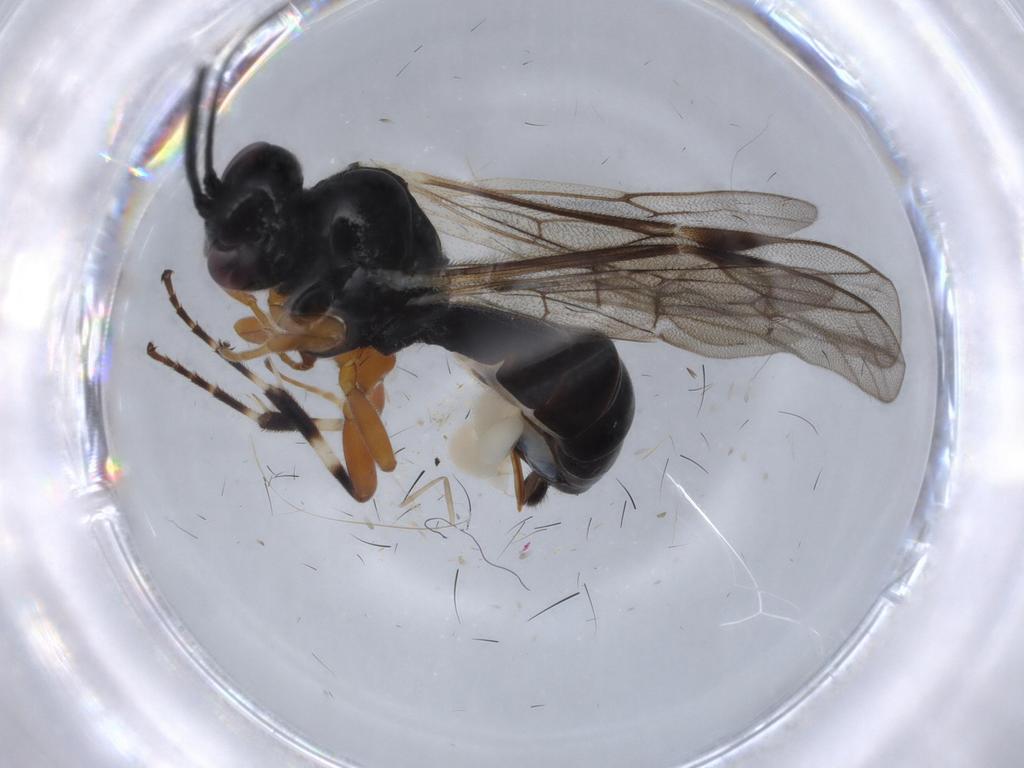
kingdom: Animalia
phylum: Arthropoda
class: Insecta
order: Hymenoptera
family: Ichneumonidae
